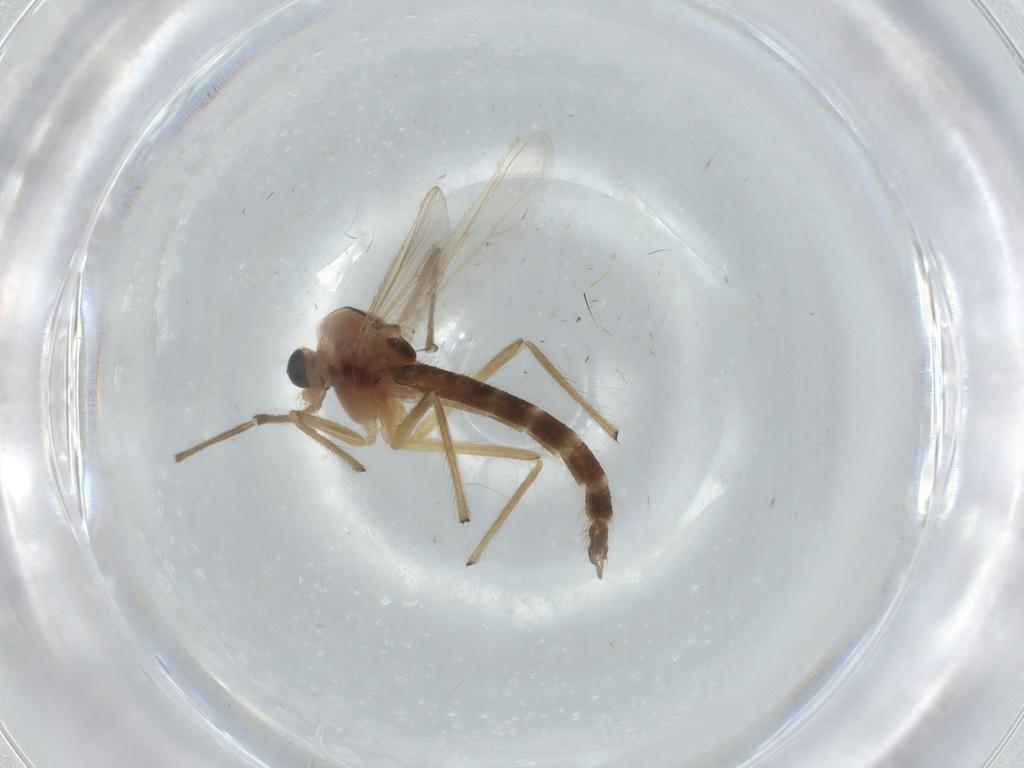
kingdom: Animalia
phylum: Arthropoda
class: Insecta
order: Diptera
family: Chironomidae
